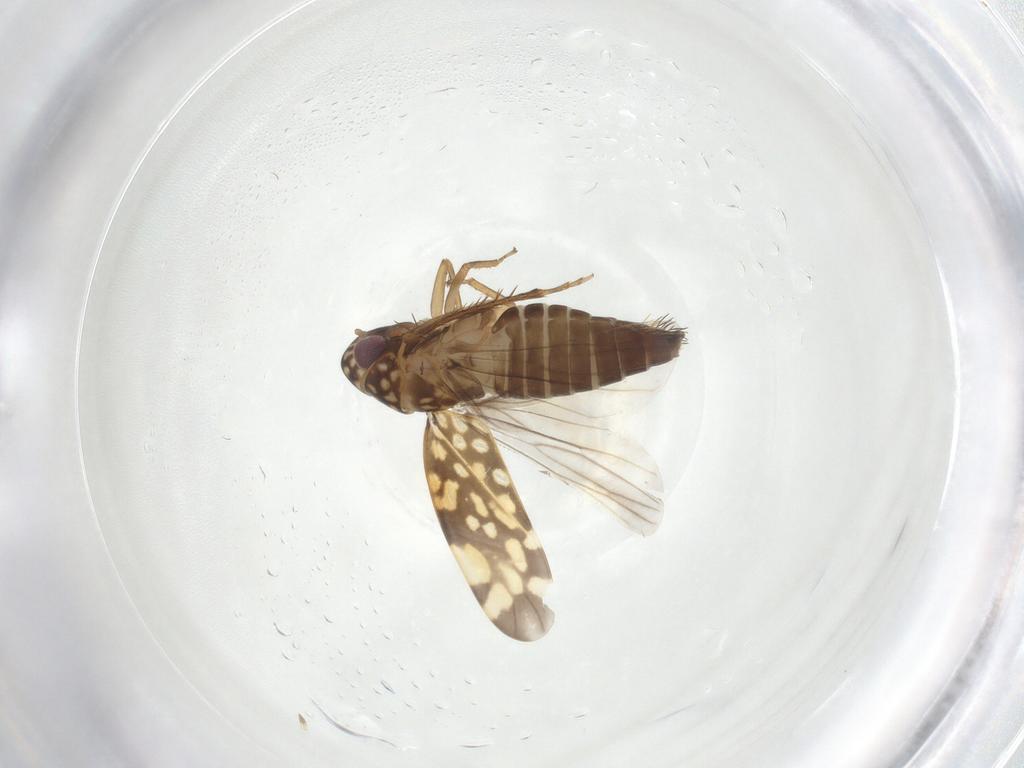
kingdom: Animalia
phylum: Arthropoda
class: Insecta
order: Hemiptera
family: Cicadellidae
